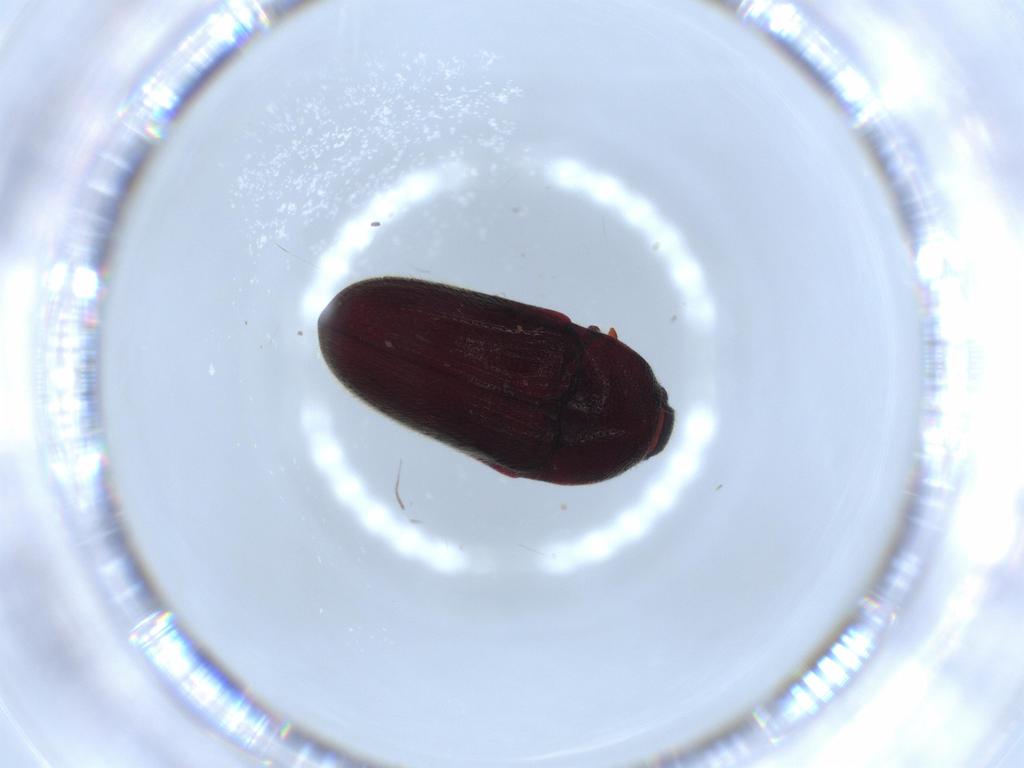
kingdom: Animalia
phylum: Arthropoda
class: Insecta
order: Coleoptera
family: Throscidae
